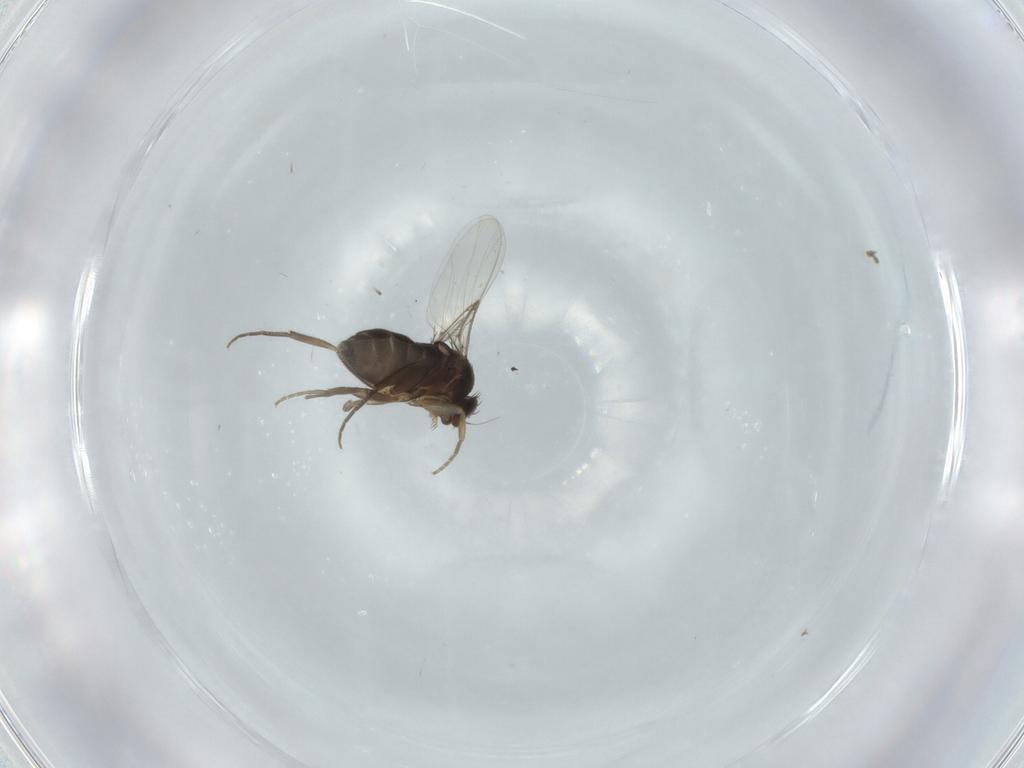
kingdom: Animalia
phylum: Arthropoda
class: Insecta
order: Diptera
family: Phoridae
